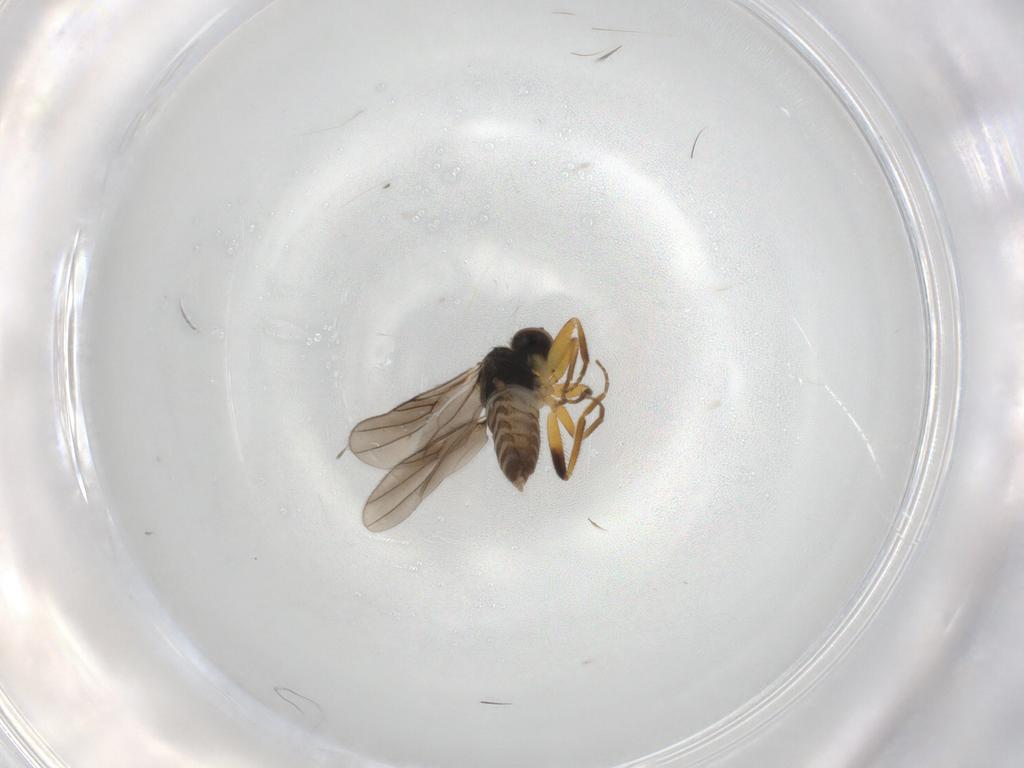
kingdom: Animalia
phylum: Arthropoda
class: Insecta
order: Diptera
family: Hybotidae
